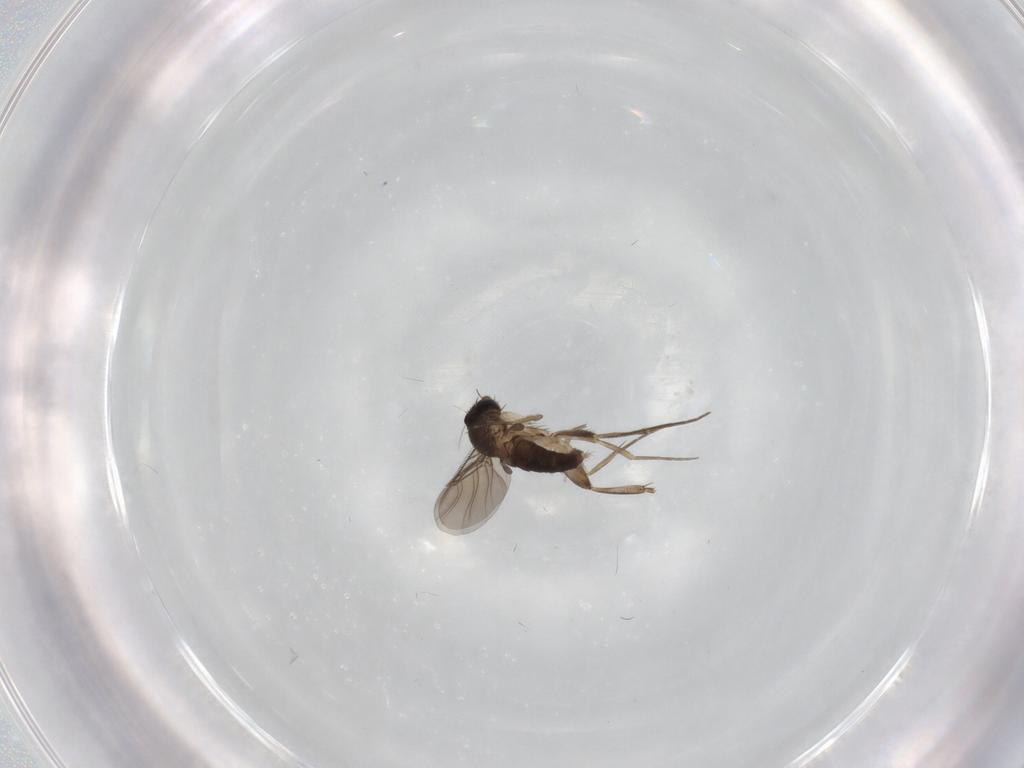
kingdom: Animalia
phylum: Arthropoda
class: Insecta
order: Diptera
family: Phoridae
